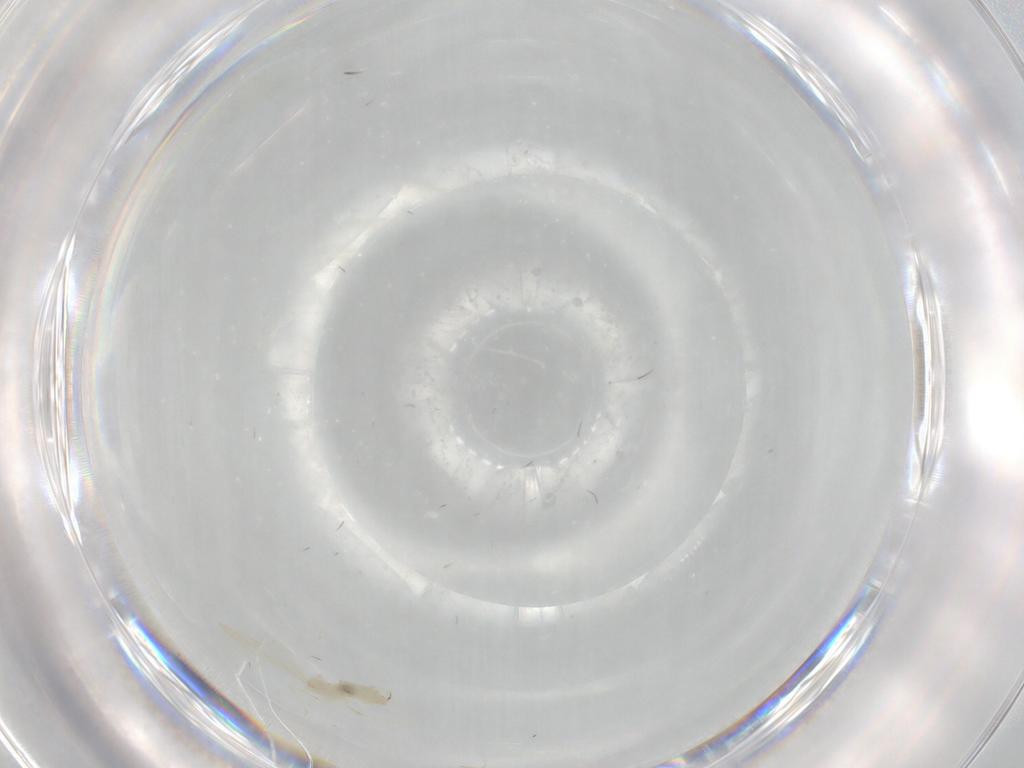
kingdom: Animalia
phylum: Arthropoda
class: Insecta
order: Diptera
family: Cecidomyiidae
